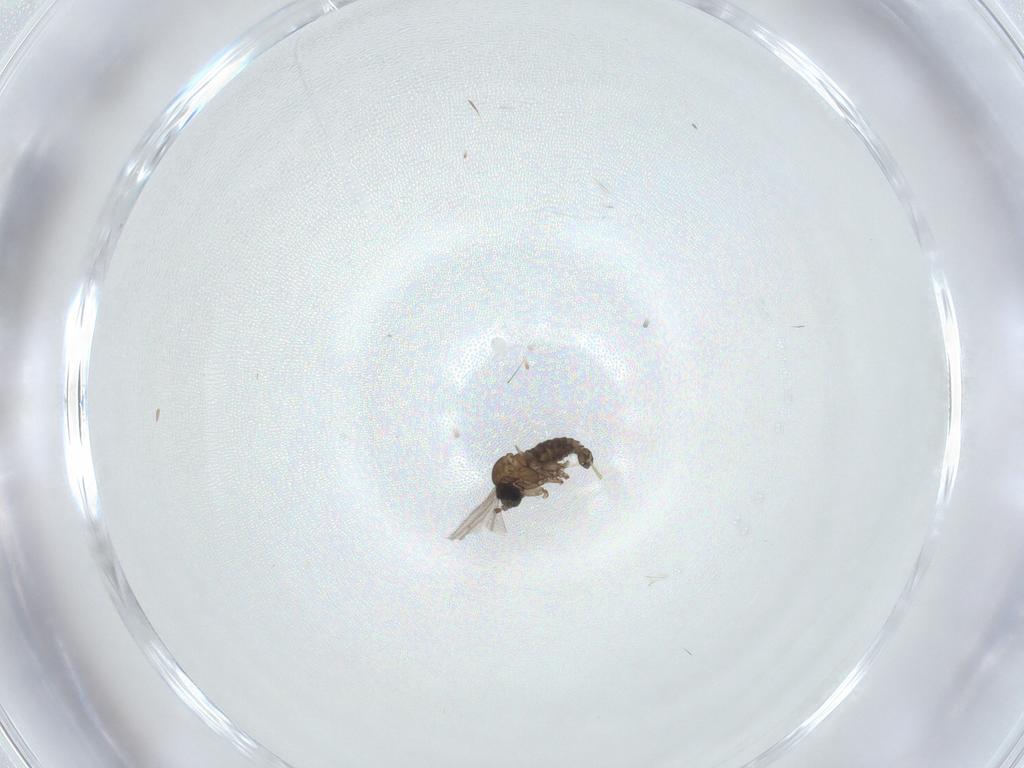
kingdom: Animalia
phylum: Arthropoda
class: Insecta
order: Diptera
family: Sciaridae
